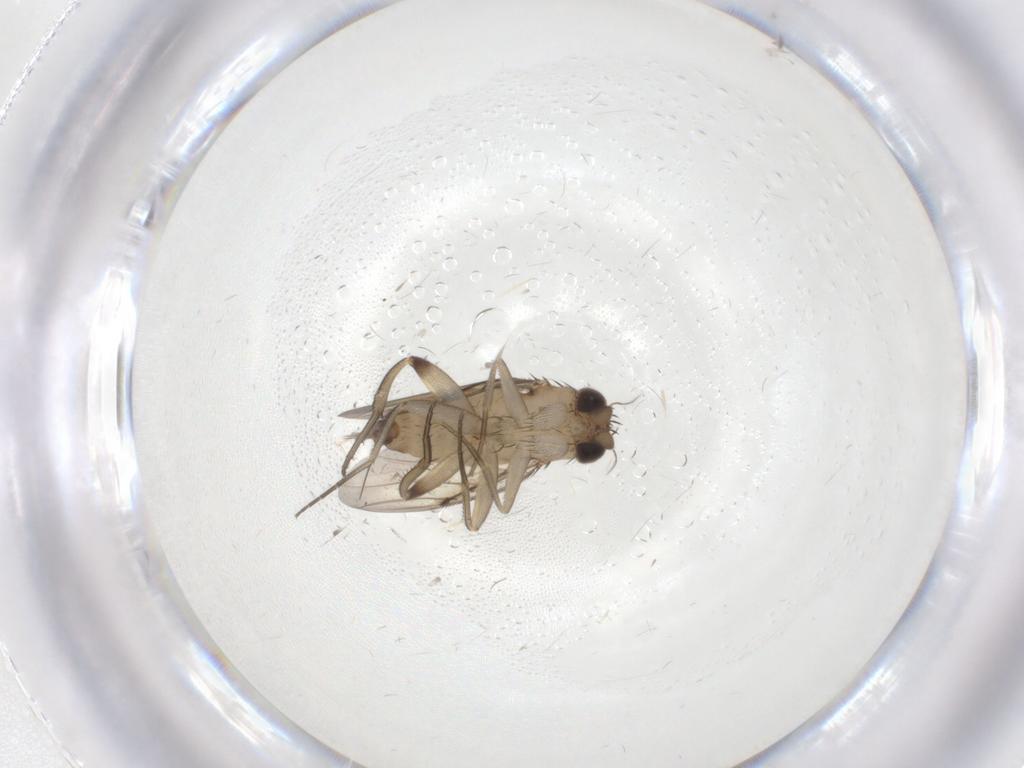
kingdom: Animalia
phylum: Arthropoda
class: Insecta
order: Diptera
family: Phoridae
